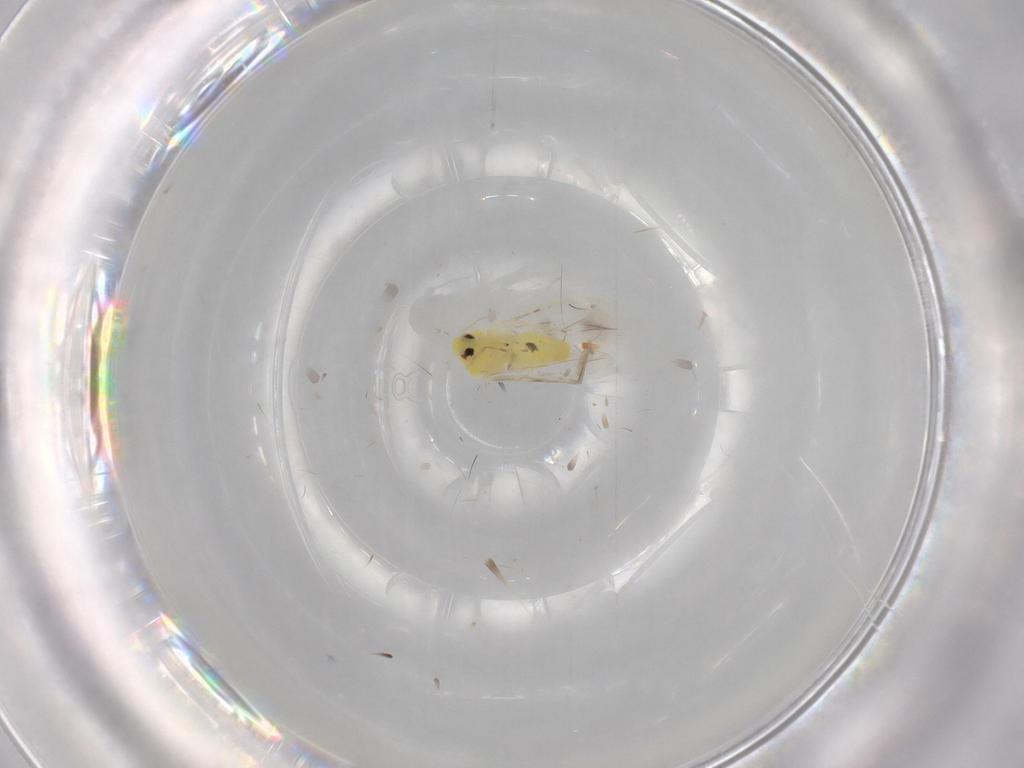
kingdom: Animalia
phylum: Arthropoda
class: Insecta
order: Hemiptera
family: Aleyrodidae
